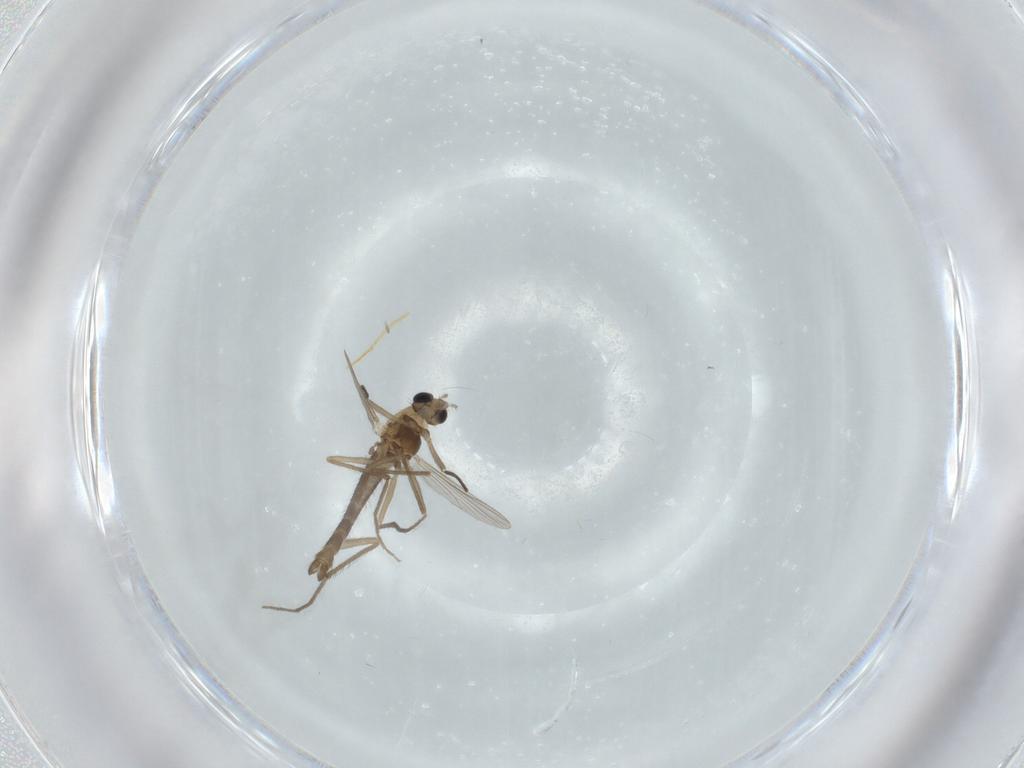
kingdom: Animalia
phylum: Arthropoda
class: Insecta
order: Diptera
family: Chironomidae
